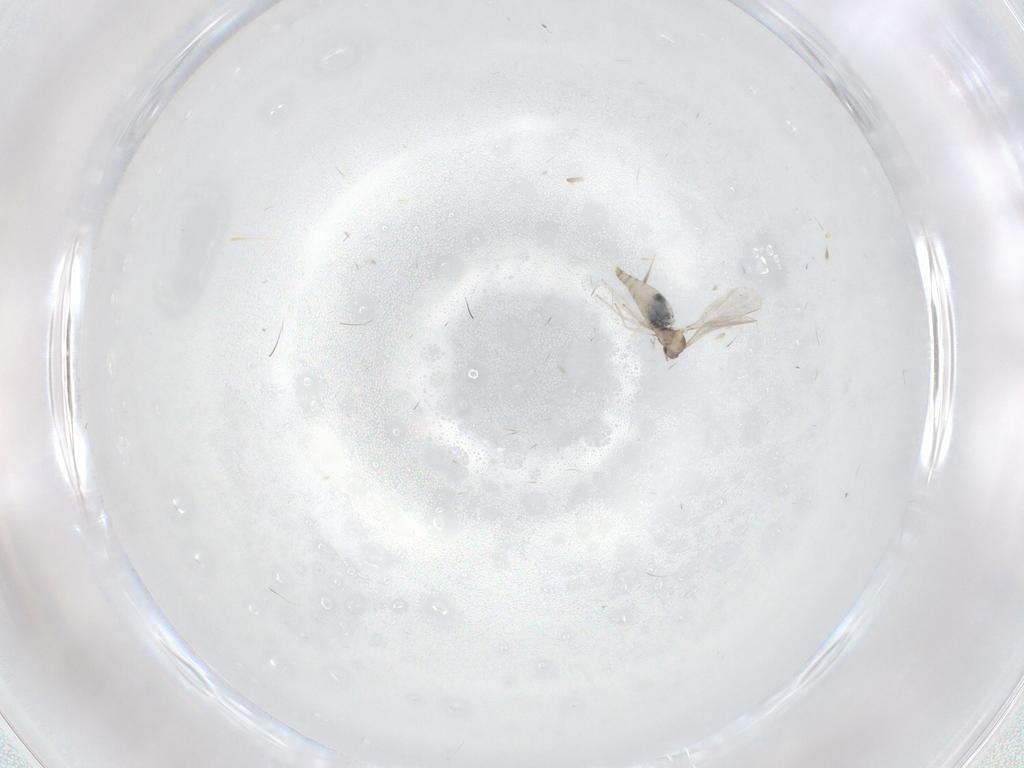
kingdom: Animalia
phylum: Arthropoda
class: Insecta
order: Diptera
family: Cecidomyiidae
